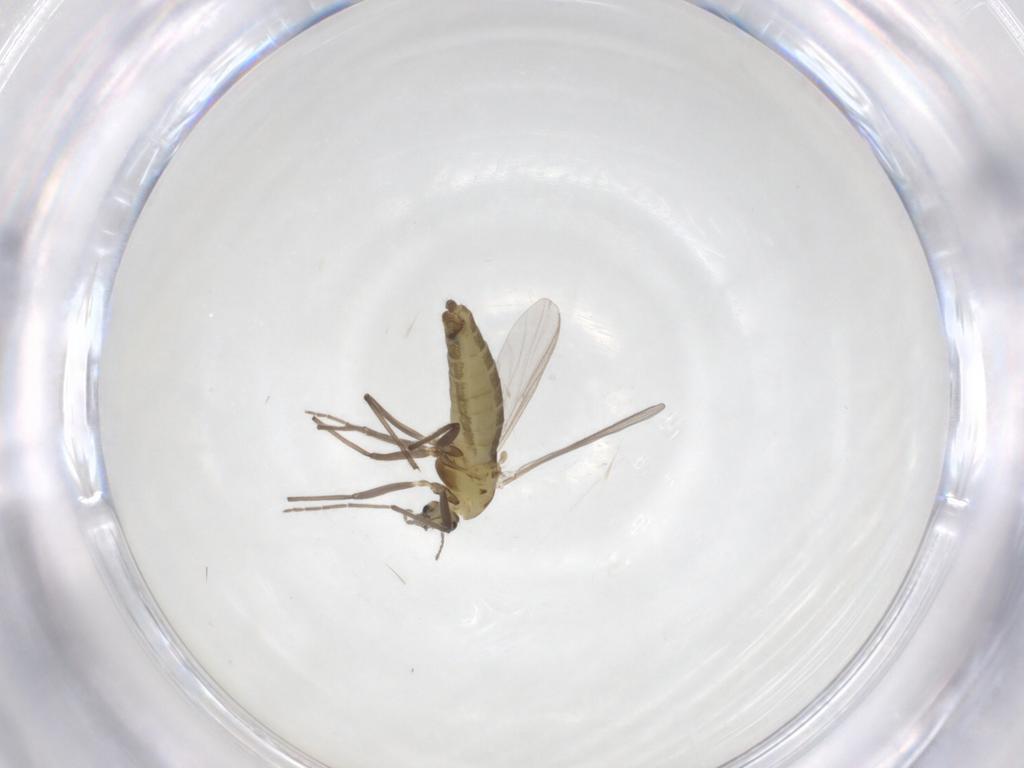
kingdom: Animalia
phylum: Arthropoda
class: Insecta
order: Diptera
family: Chironomidae
